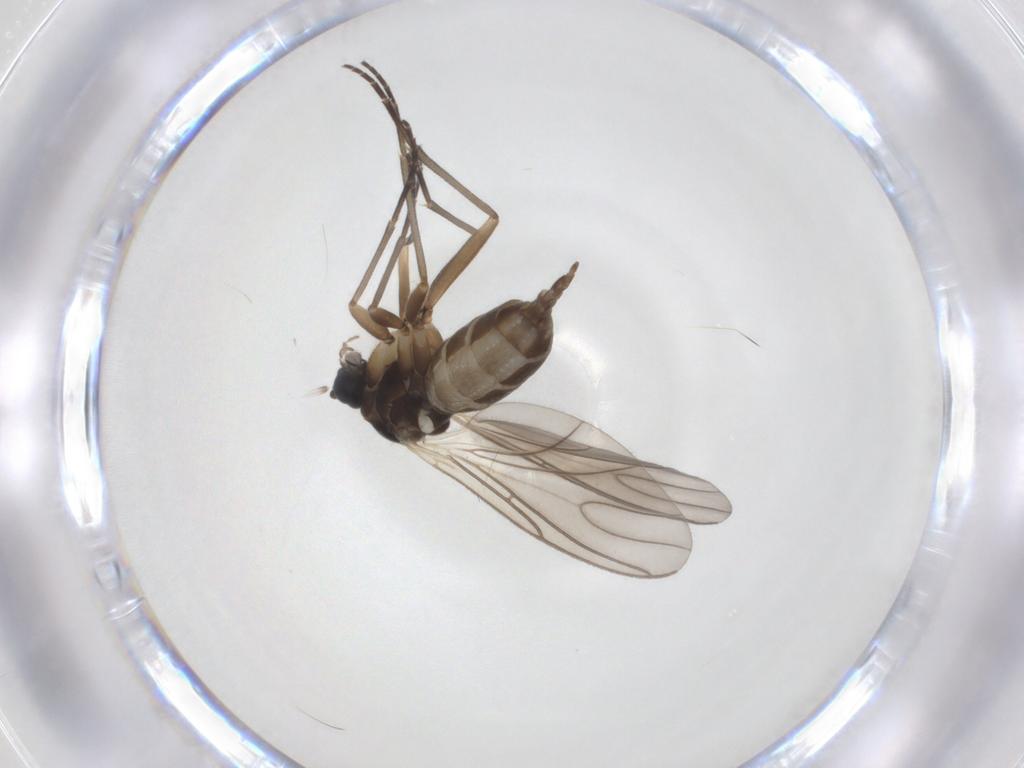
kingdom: Animalia
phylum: Arthropoda
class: Insecta
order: Diptera
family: Sciaridae
